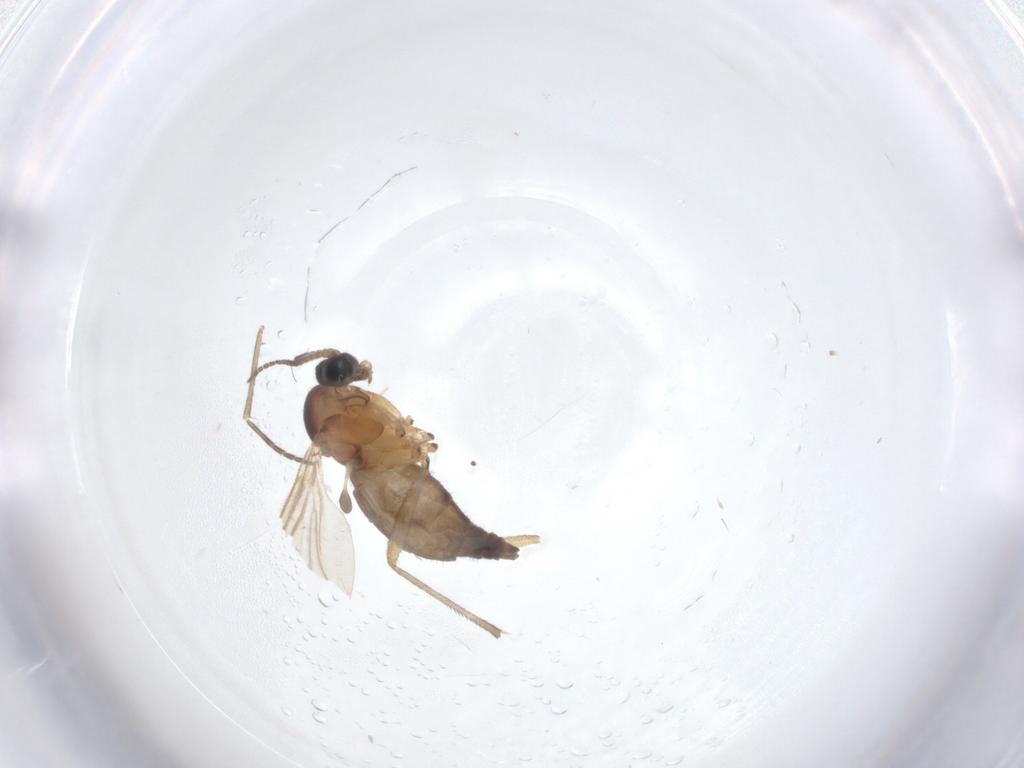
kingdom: Animalia
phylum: Arthropoda
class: Insecta
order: Diptera
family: Sciaridae
